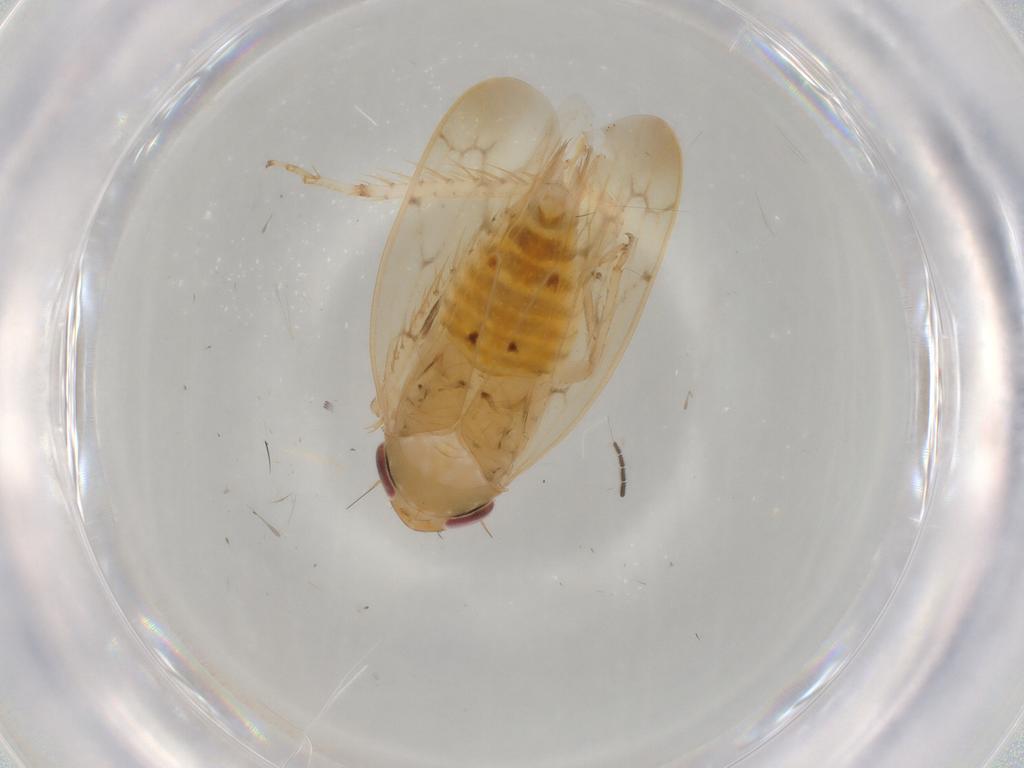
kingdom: Animalia
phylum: Arthropoda
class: Insecta
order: Hemiptera
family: Cicadellidae
